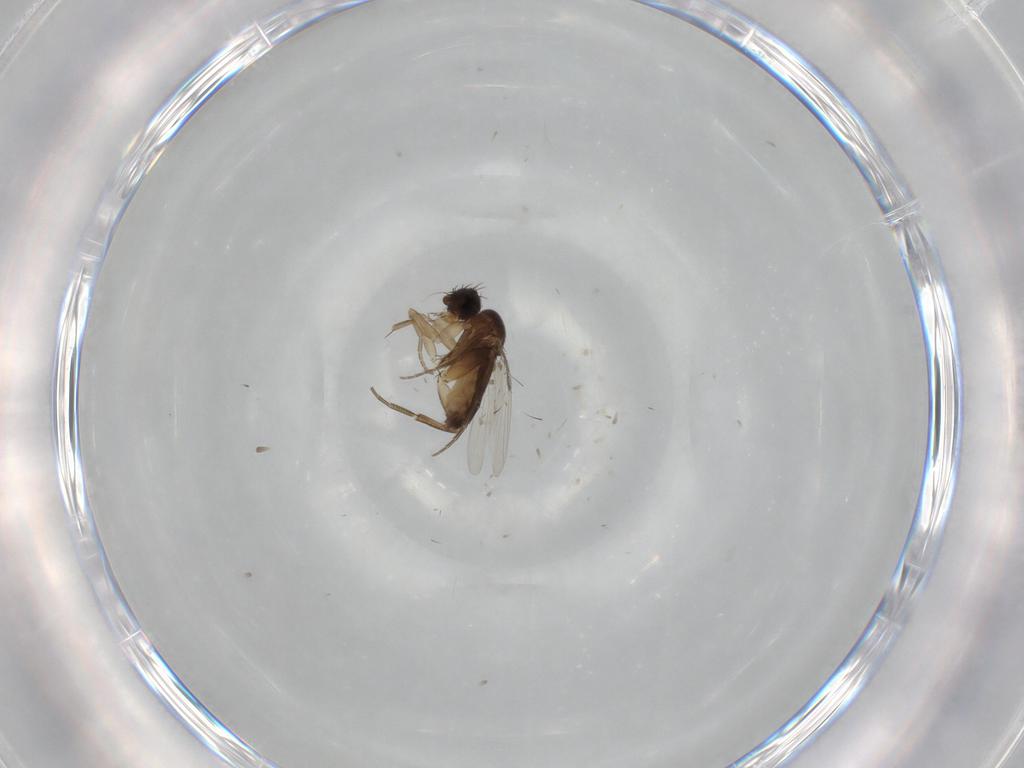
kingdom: Animalia
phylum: Arthropoda
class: Insecta
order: Diptera
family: Phoridae
